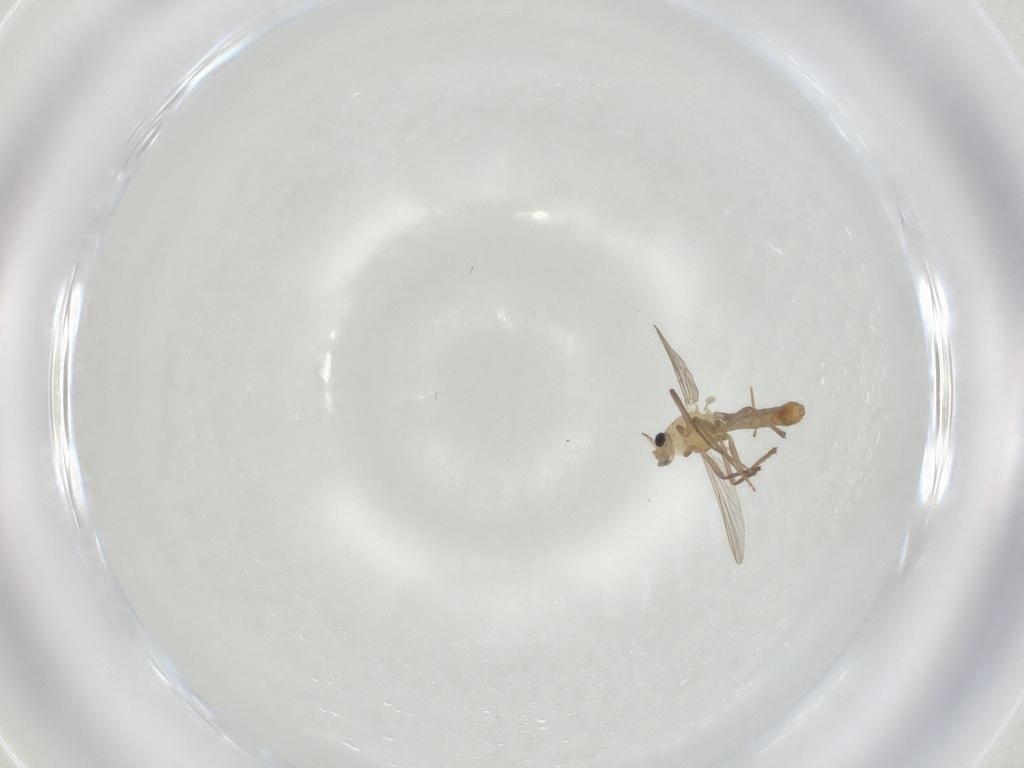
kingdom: Animalia
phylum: Arthropoda
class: Insecta
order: Diptera
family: Chironomidae
